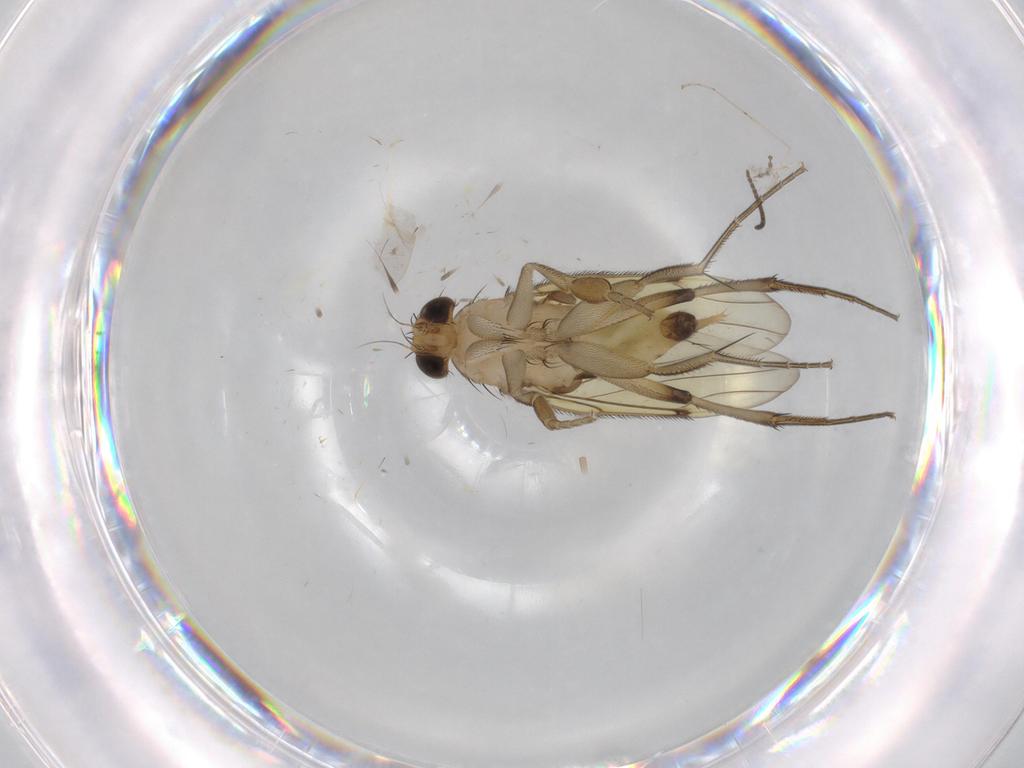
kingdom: Animalia
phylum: Arthropoda
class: Insecta
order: Diptera
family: Phoridae
